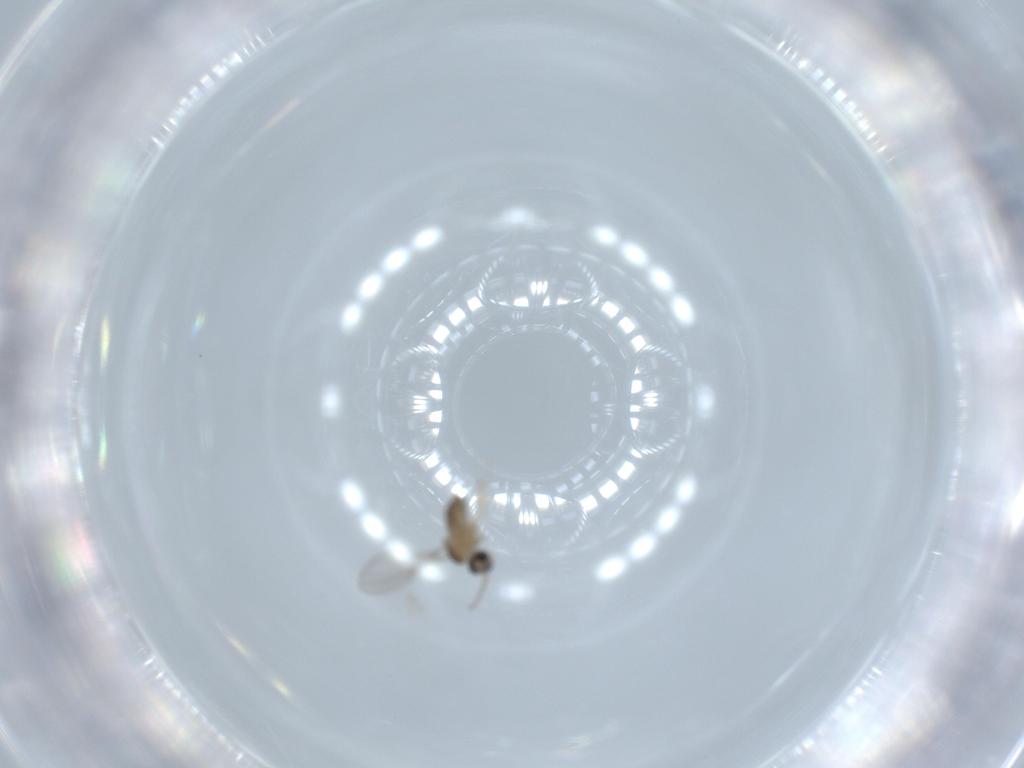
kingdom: Animalia
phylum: Arthropoda
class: Insecta
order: Diptera
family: Cecidomyiidae
